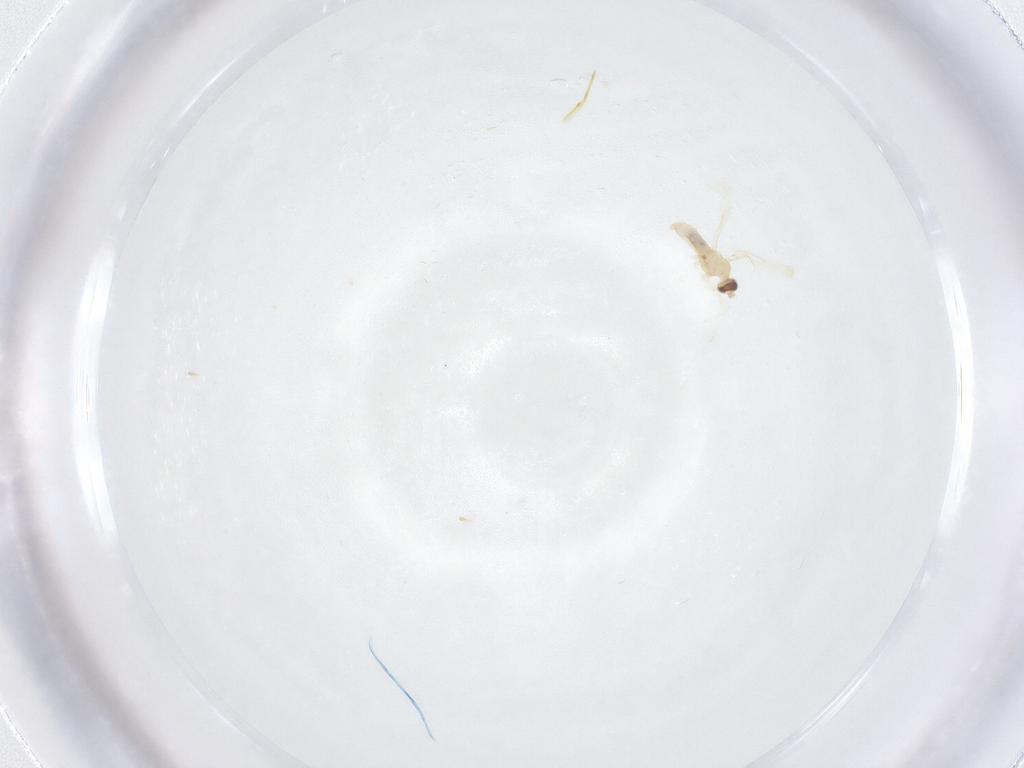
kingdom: Animalia
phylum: Arthropoda
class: Insecta
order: Diptera
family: Cecidomyiidae
